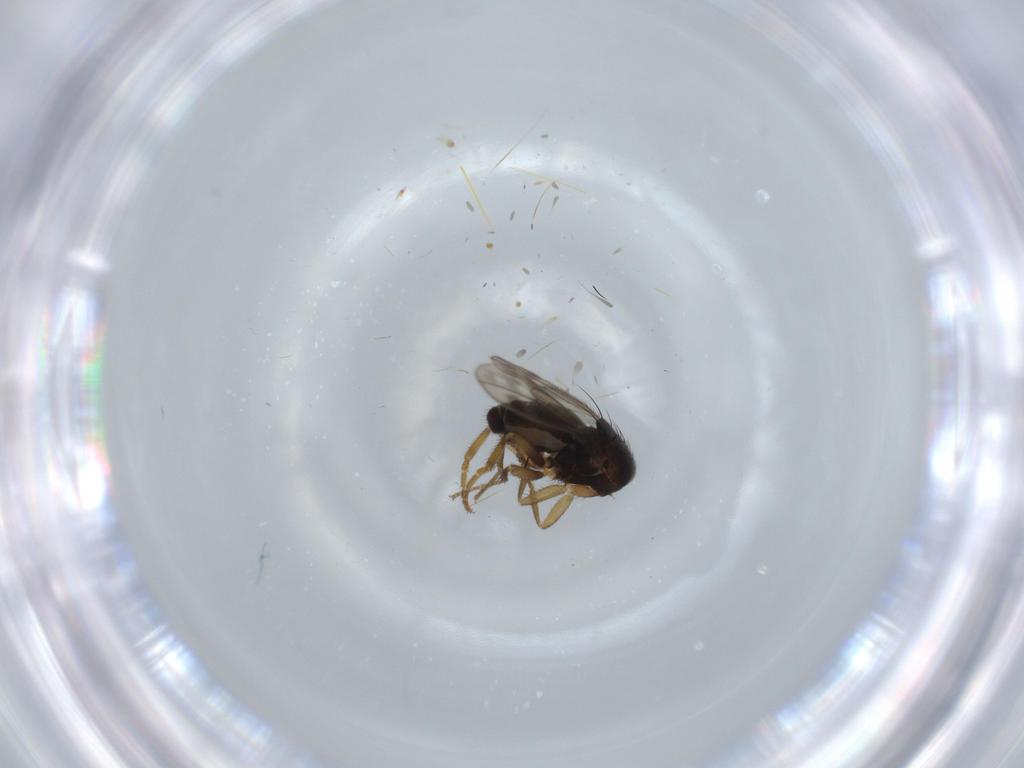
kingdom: Animalia
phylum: Arthropoda
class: Insecta
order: Diptera
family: Sphaeroceridae
